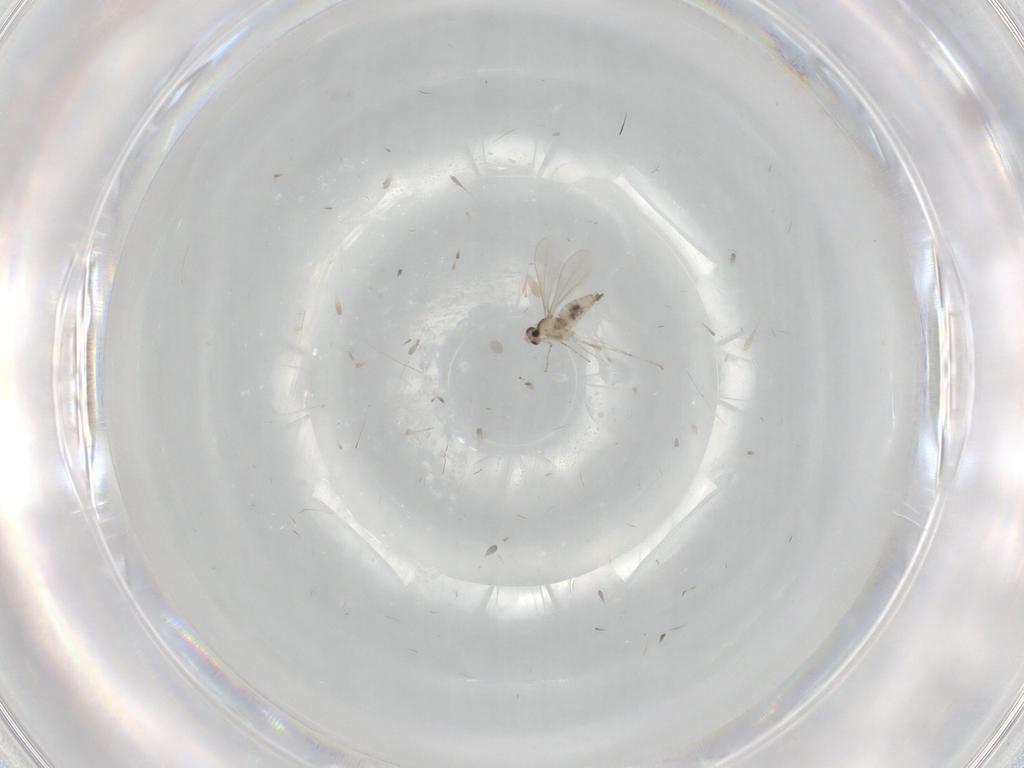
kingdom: Animalia
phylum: Arthropoda
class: Insecta
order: Diptera
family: Cecidomyiidae
